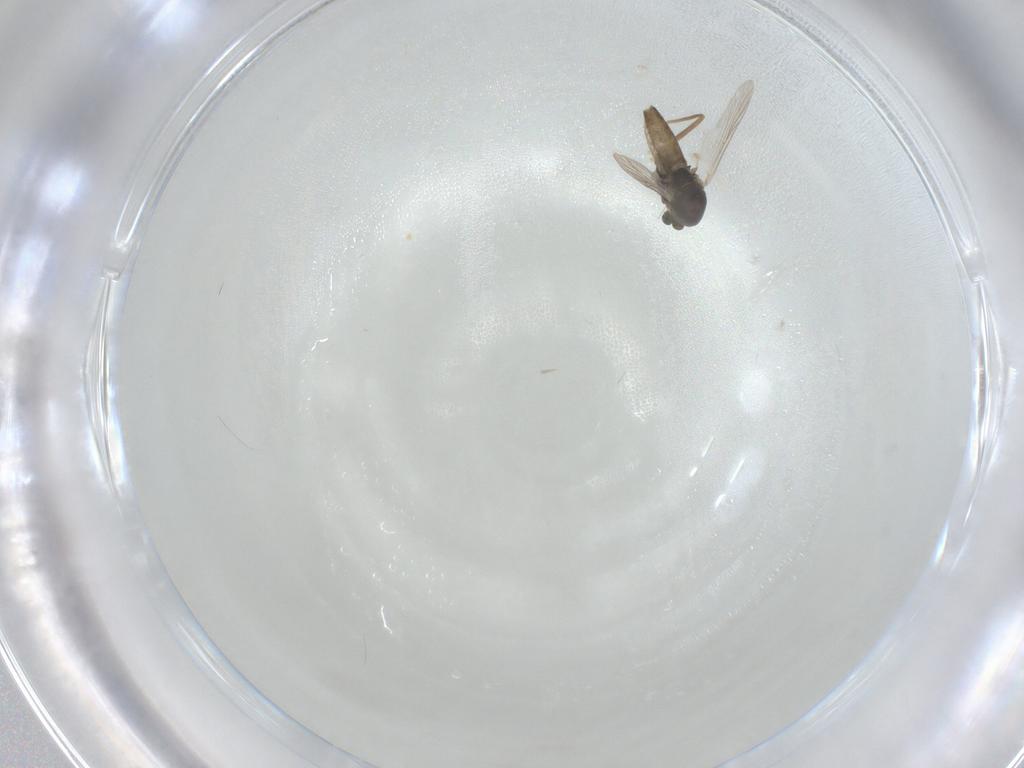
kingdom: Animalia
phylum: Arthropoda
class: Insecta
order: Diptera
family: Chironomidae
